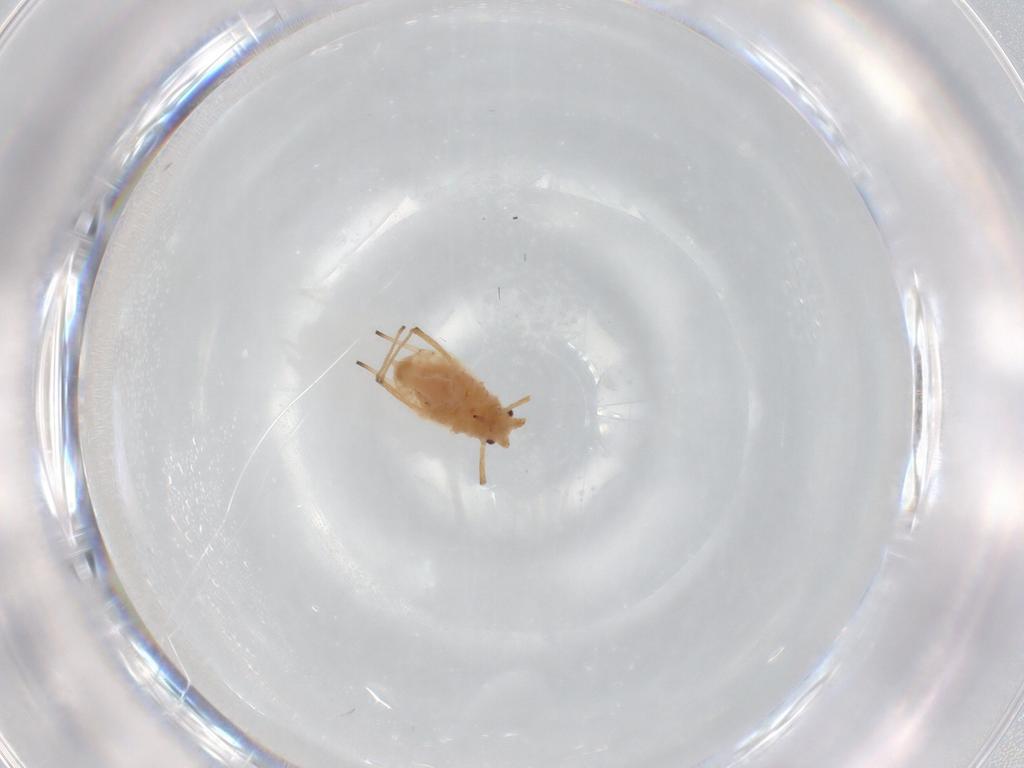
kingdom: Animalia
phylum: Arthropoda
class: Insecta
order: Hemiptera
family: Aphididae
